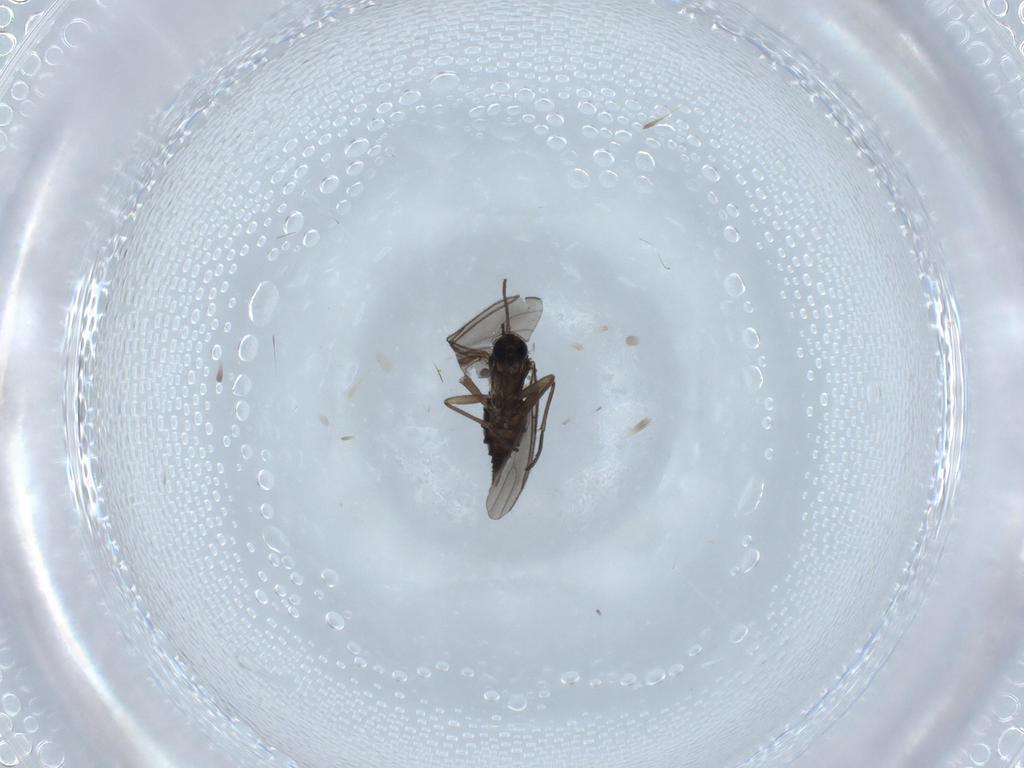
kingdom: Animalia
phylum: Arthropoda
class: Insecta
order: Diptera
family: Sciaridae
